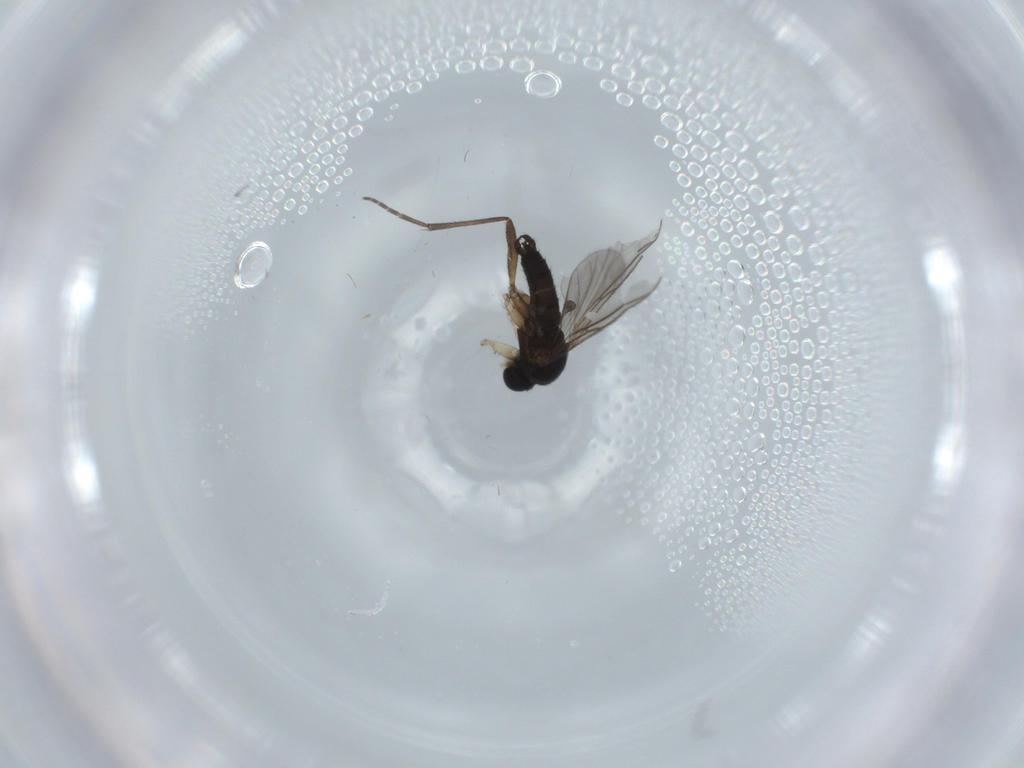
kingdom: Animalia
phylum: Arthropoda
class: Insecta
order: Diptera
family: Sciaridae
